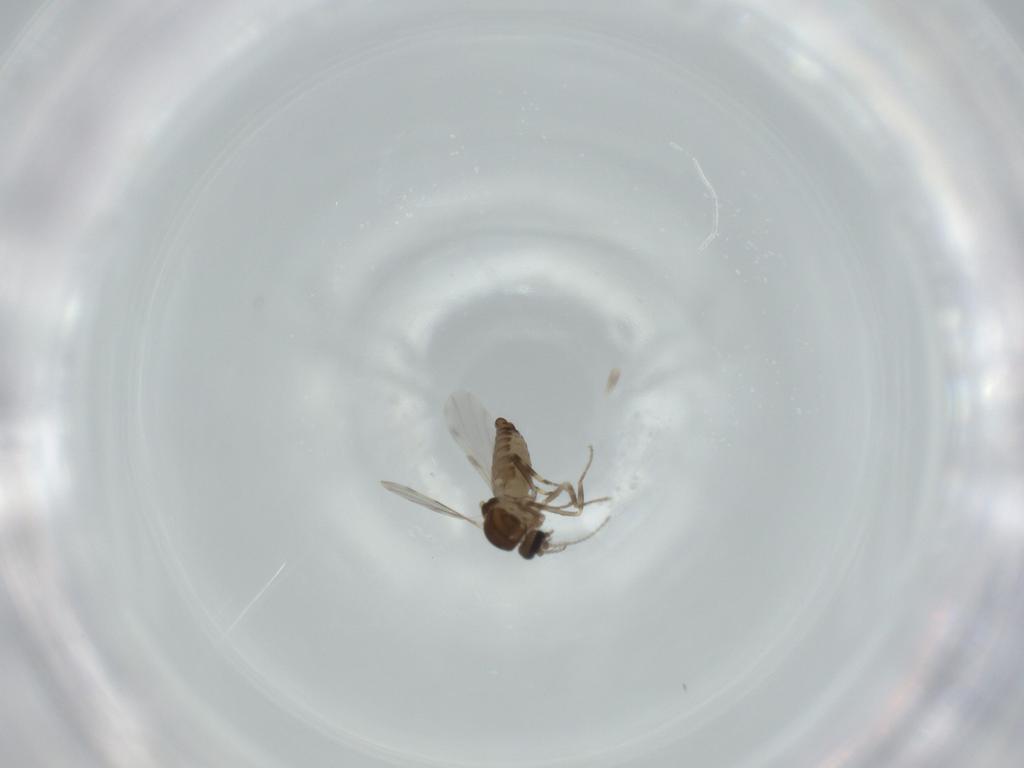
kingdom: Animalia
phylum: Arthropoda
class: Insecta
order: Diptera
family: Ceratopogonidae
